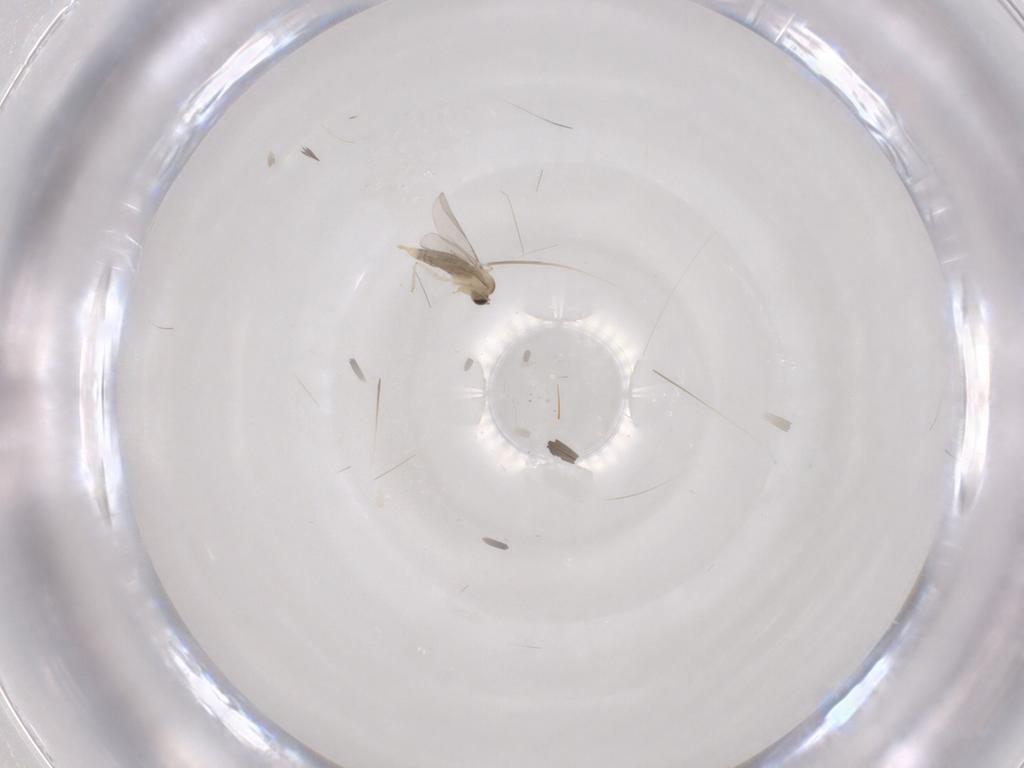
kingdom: Animalia
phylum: Arthropoda
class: Insecta
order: Diptera
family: Cecidomyiidae
